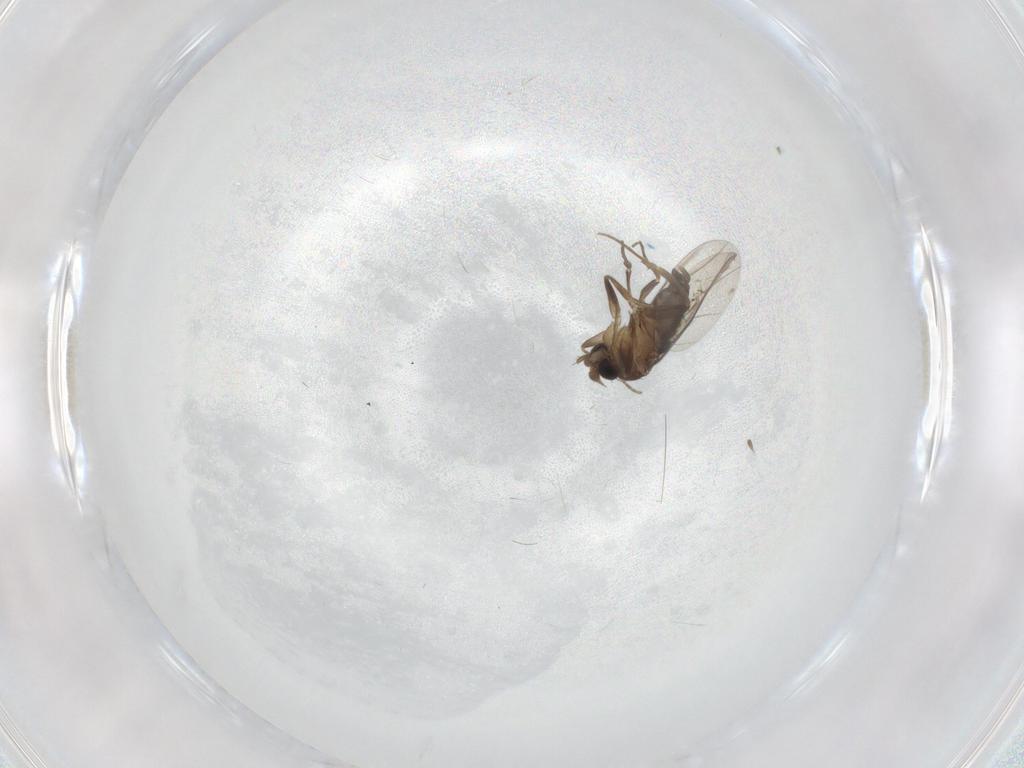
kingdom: Animalia
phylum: Arthropoda
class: Insecta
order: Diptera
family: Phoridae
